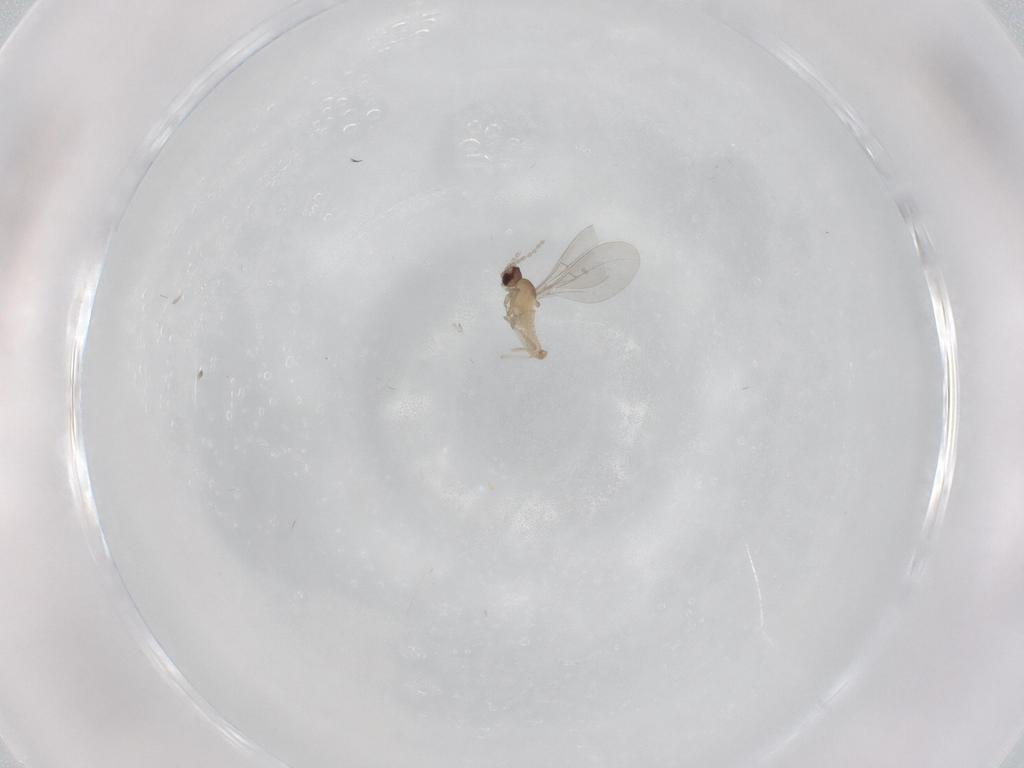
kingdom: Animalia
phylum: Arthropoda
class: Insecta
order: Diptera
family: Cecidomyiidae
